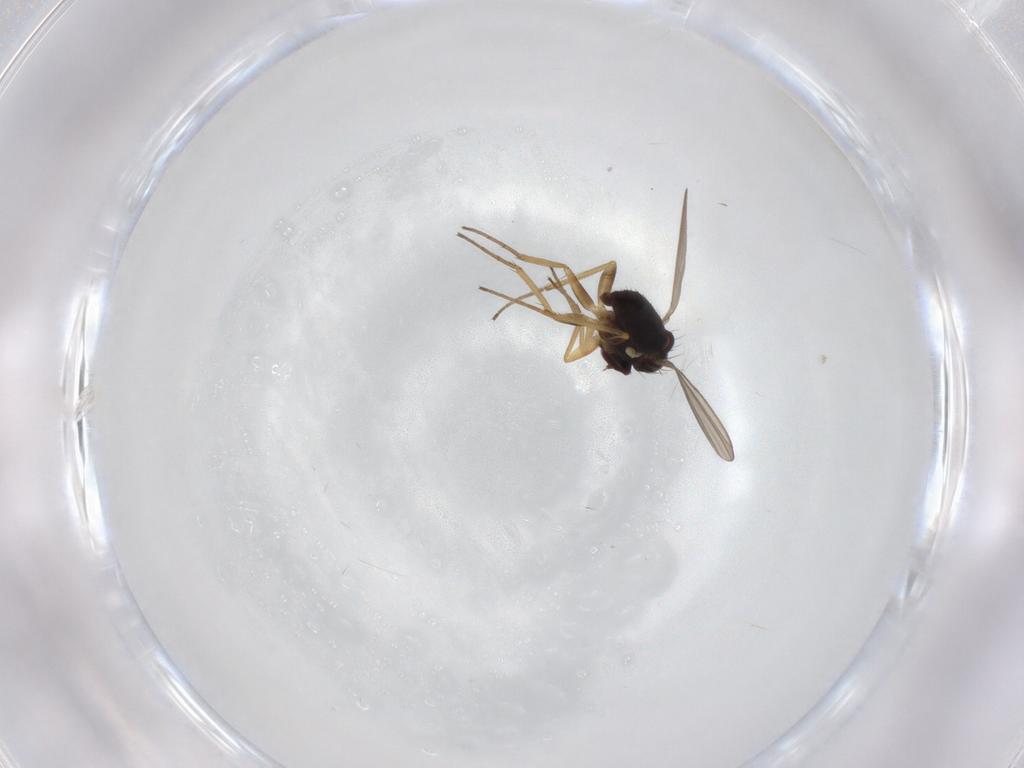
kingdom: Animalia
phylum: Arthropoda
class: Insecta
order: Diptera
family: Dolichopodidae
